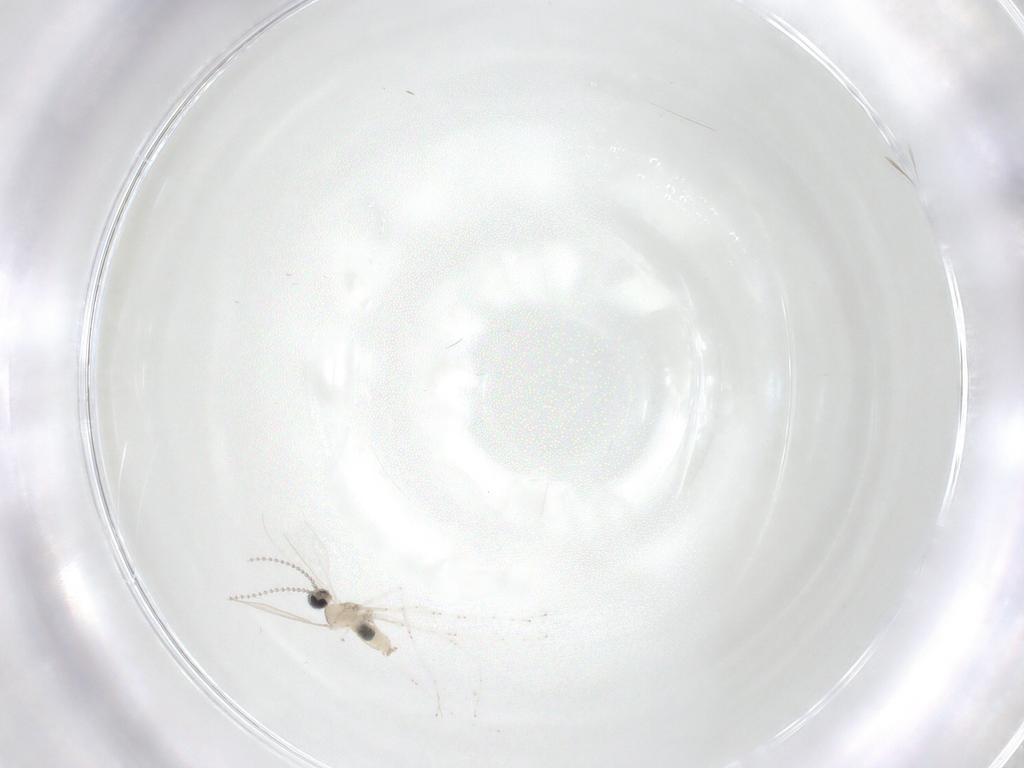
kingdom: Animalia
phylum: Arthropoda
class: Insecta
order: Diptera
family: Cecidomyiidae
